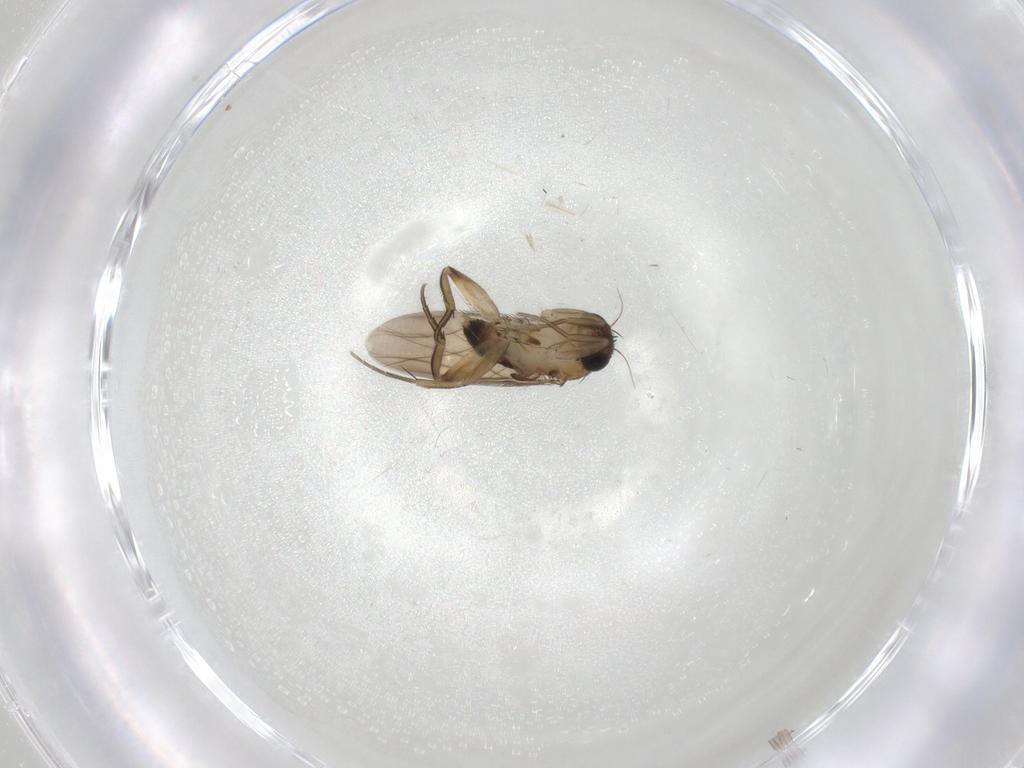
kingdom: Animalia
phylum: Arthropoda
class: Insecta
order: Diptera
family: Phoridae
